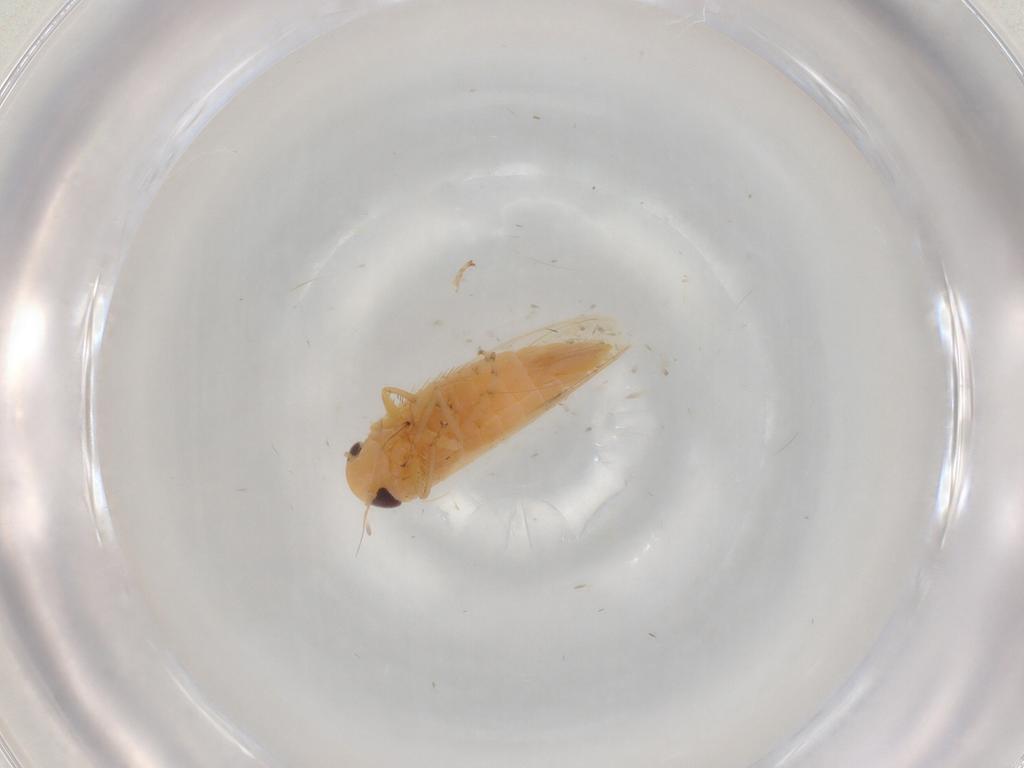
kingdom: Animalia
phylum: Arthropoda
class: Insecta
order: Hemiptera
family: Cicadellidae
